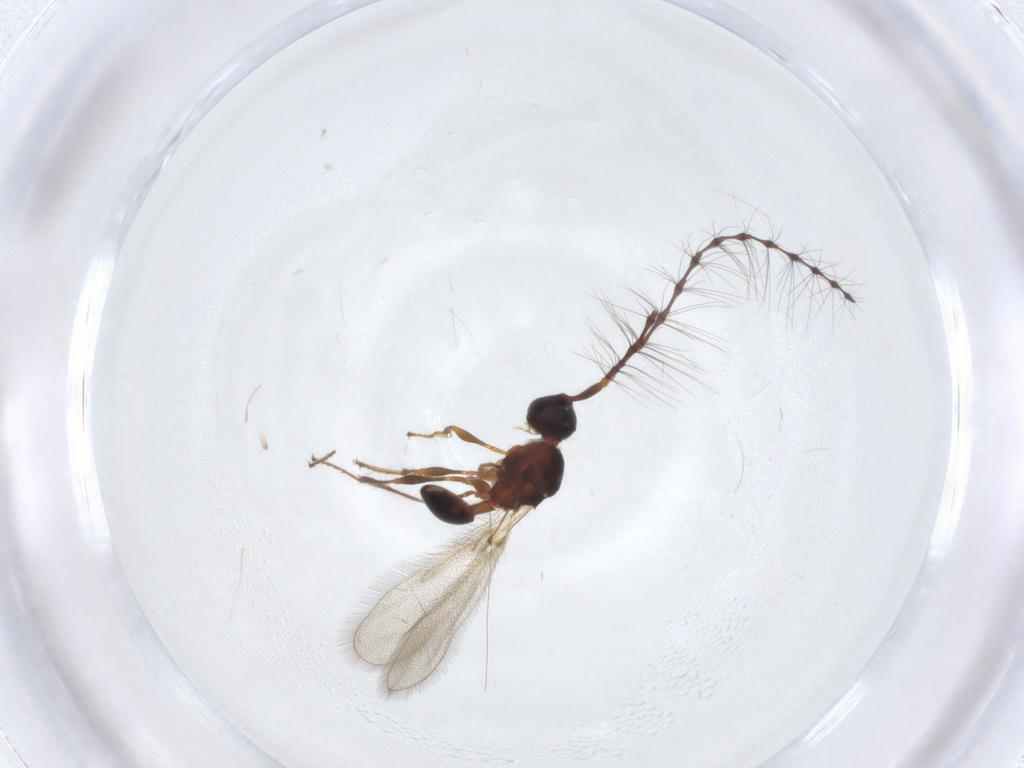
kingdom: Animalia
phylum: Arthropoda
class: Insecta
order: Hymenoptera
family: Diapriidae
